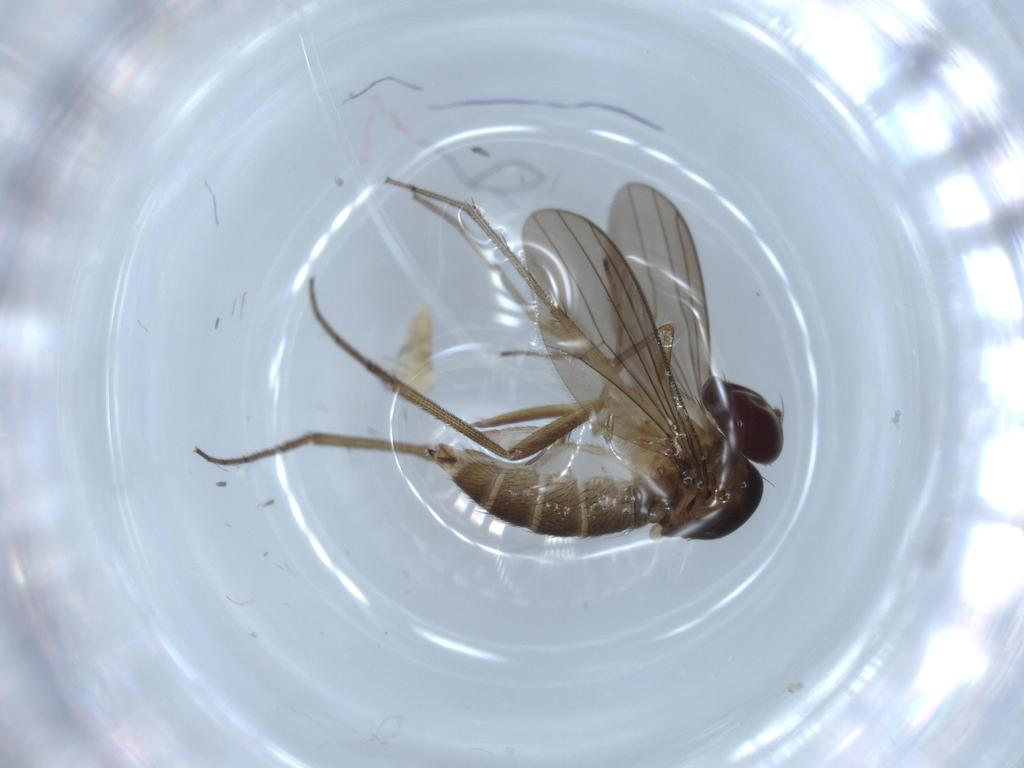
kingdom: Animalia
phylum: Arthropoda
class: Insecta
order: Diptera
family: Dolichopodidae
